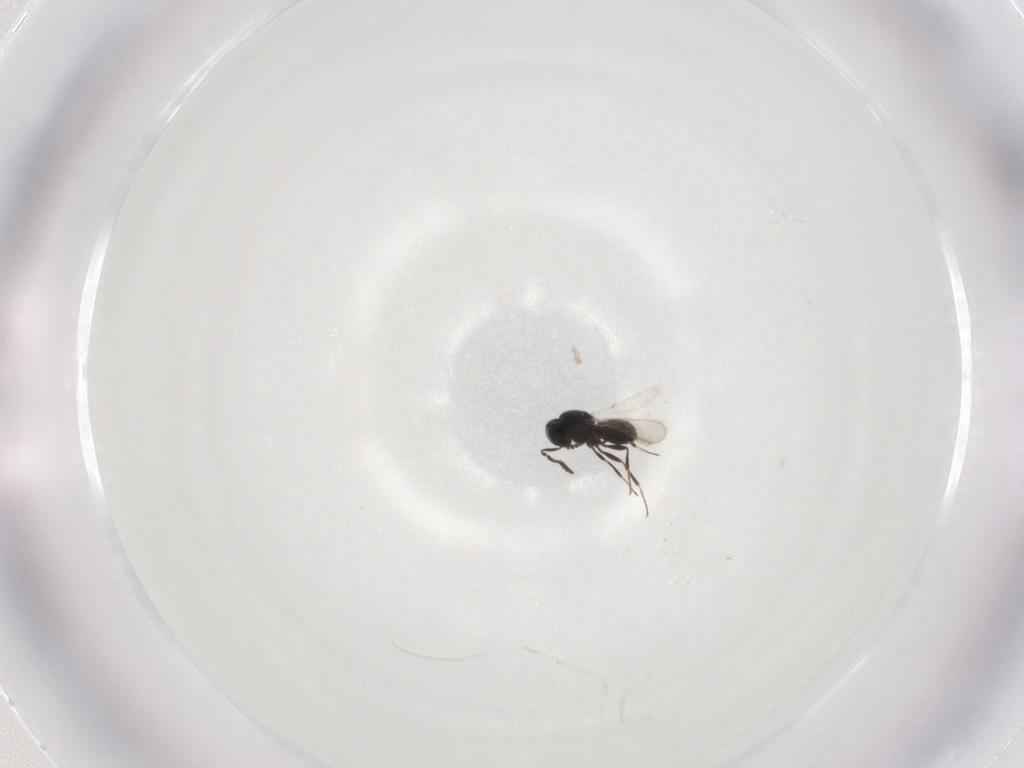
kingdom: Animalia
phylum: Arthropoda
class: Insecta
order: Hymenoptera
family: Scelionidae
